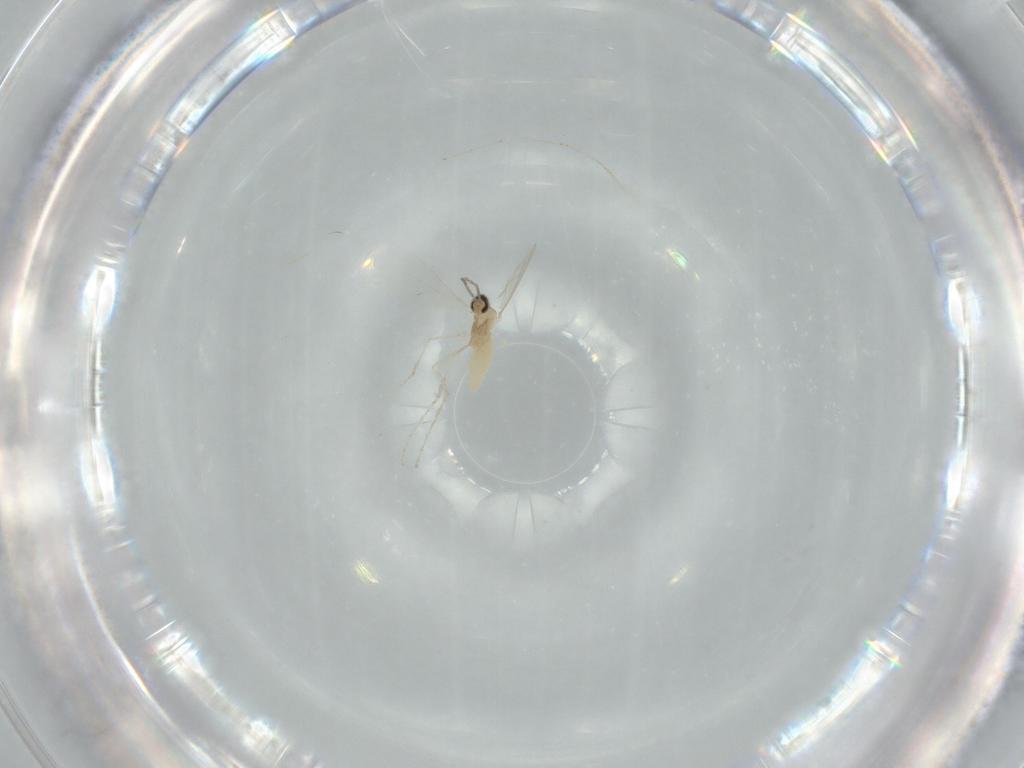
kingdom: Animalia
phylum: Arthropoda
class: Insecta
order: Diptera
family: Cecidomyiidae
